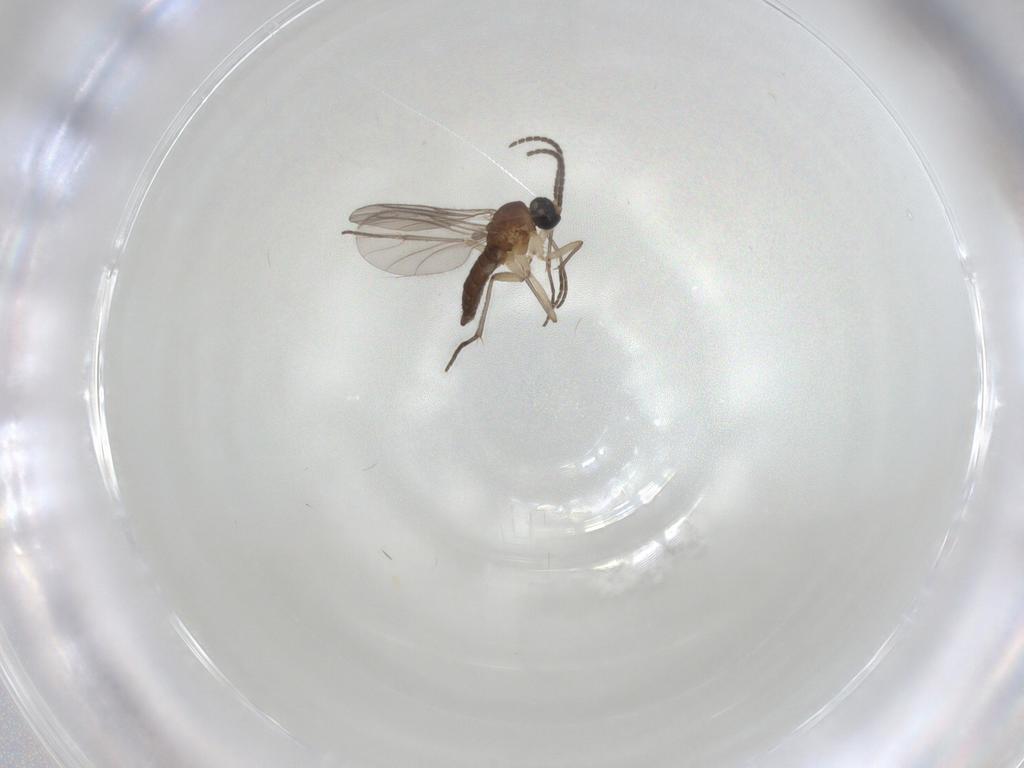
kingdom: Animalia
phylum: Arthropoda
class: Insecta
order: Diptera
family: Sciaridae
